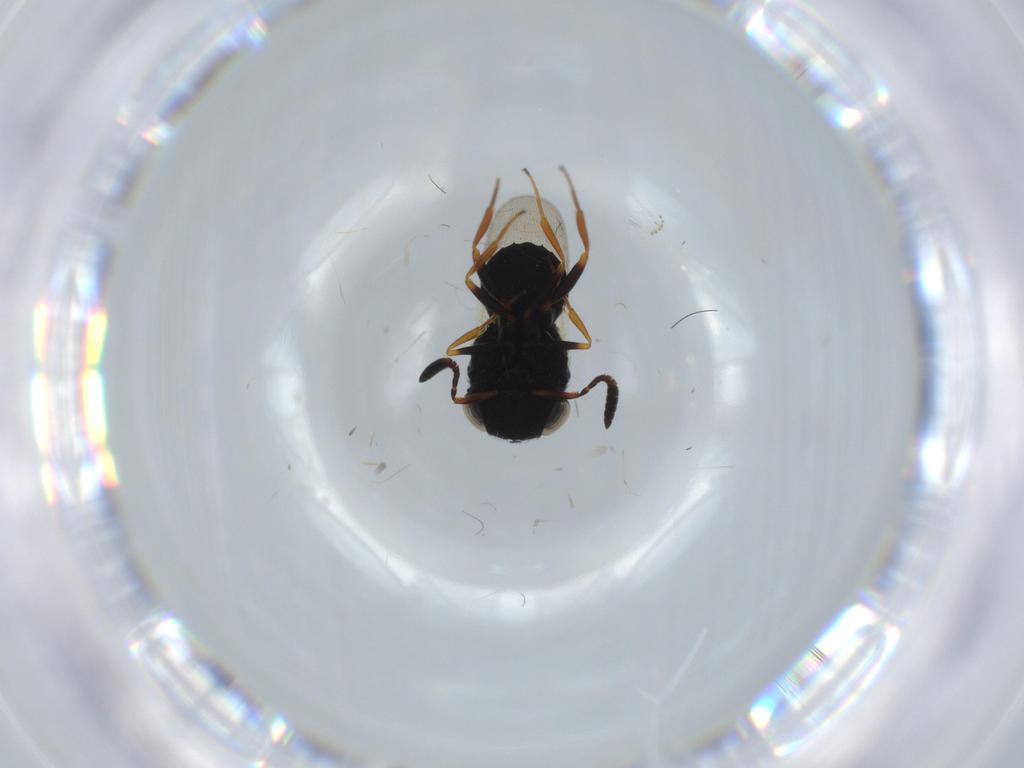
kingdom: Animalia
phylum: Arthropoda
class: Insecta
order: Hymenoptera
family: Scelionidae
